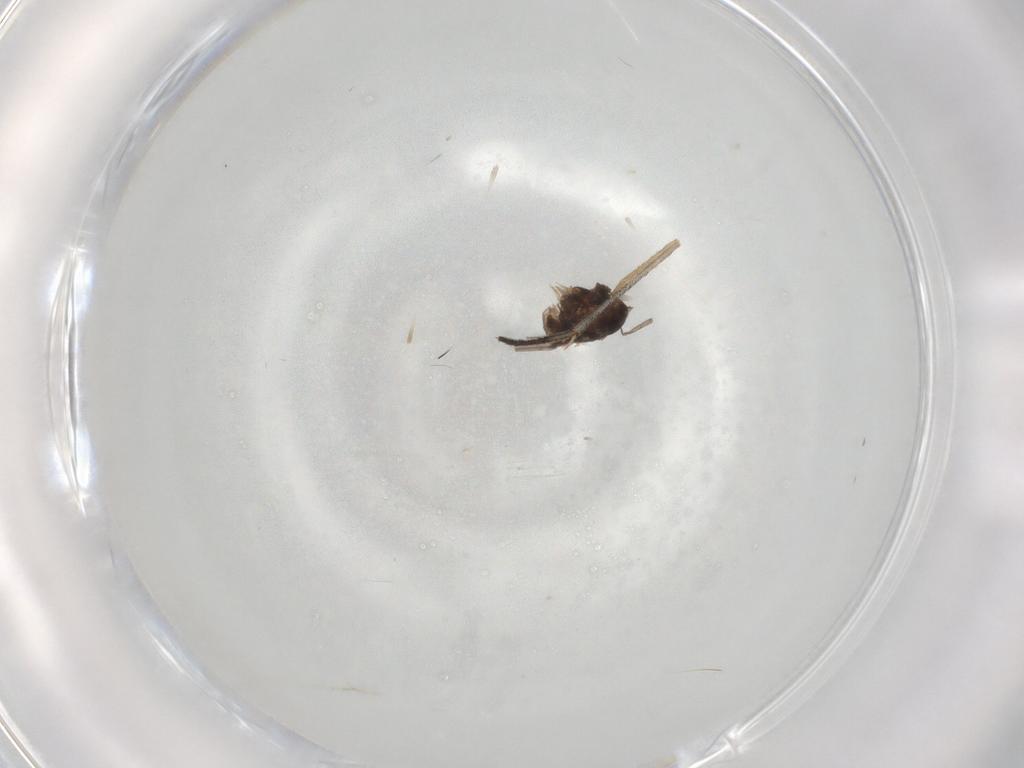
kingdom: Animalia
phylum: Arthropoda
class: Insecta
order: Diptera
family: Sciaridae
